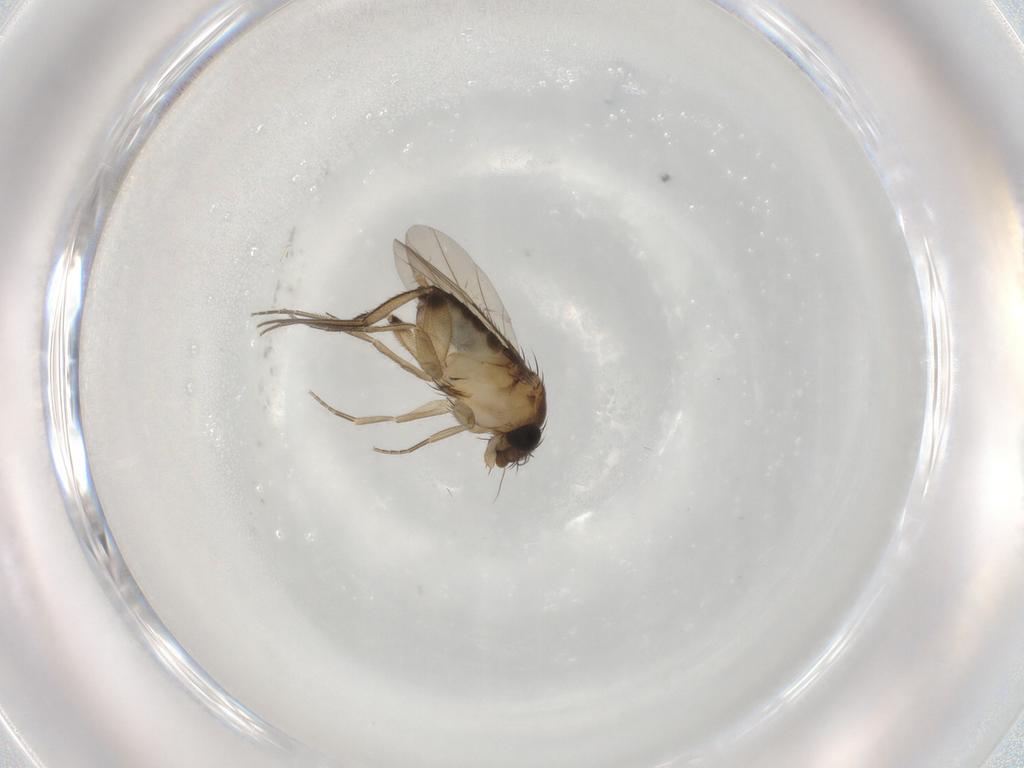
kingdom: Animalia
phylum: Arthropoda
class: Insecta
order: Diptera
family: Phoridae
